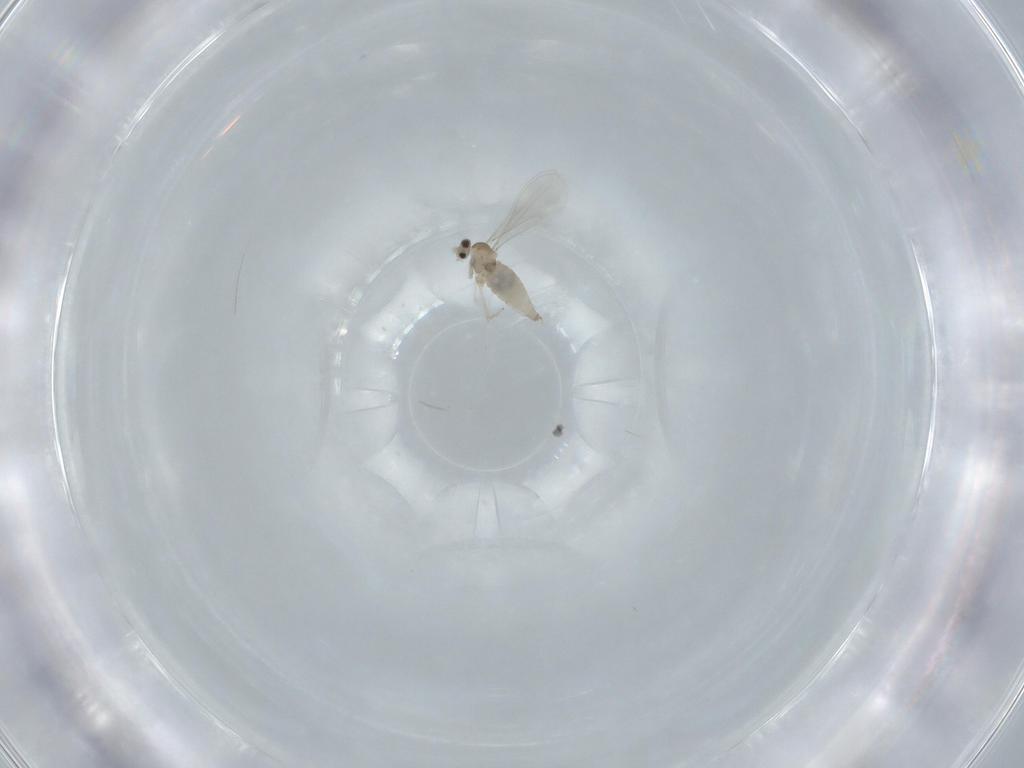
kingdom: Animalia
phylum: Arthropoda
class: Insecta
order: Diptera
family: Cecidomyiidae
